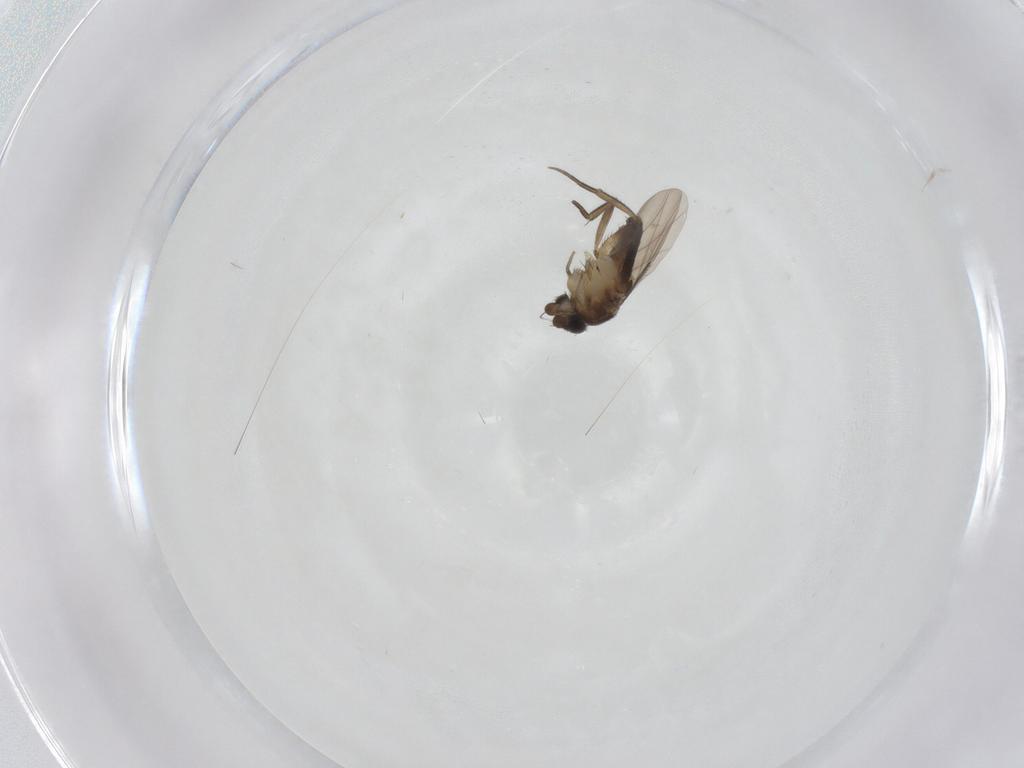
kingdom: Animalia
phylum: Arthropoda
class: Insecta
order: Diptera
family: Phoridae
